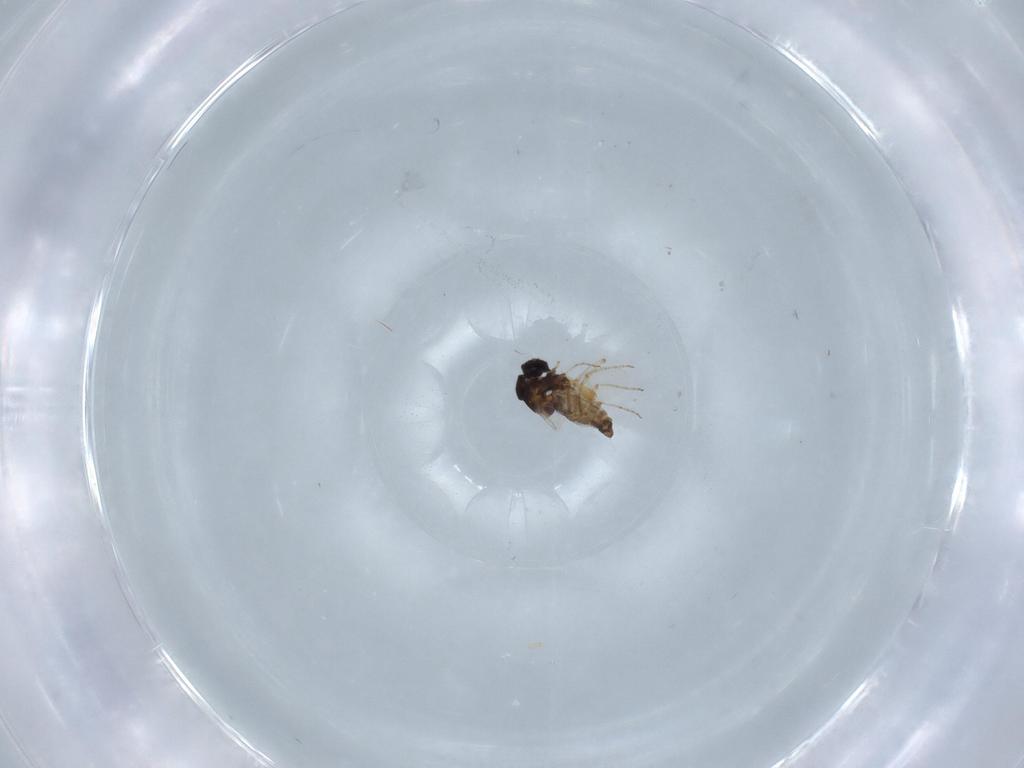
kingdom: Animalia
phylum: Arthropoda
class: Insecta
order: Diptera
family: Ceratopogonidae
